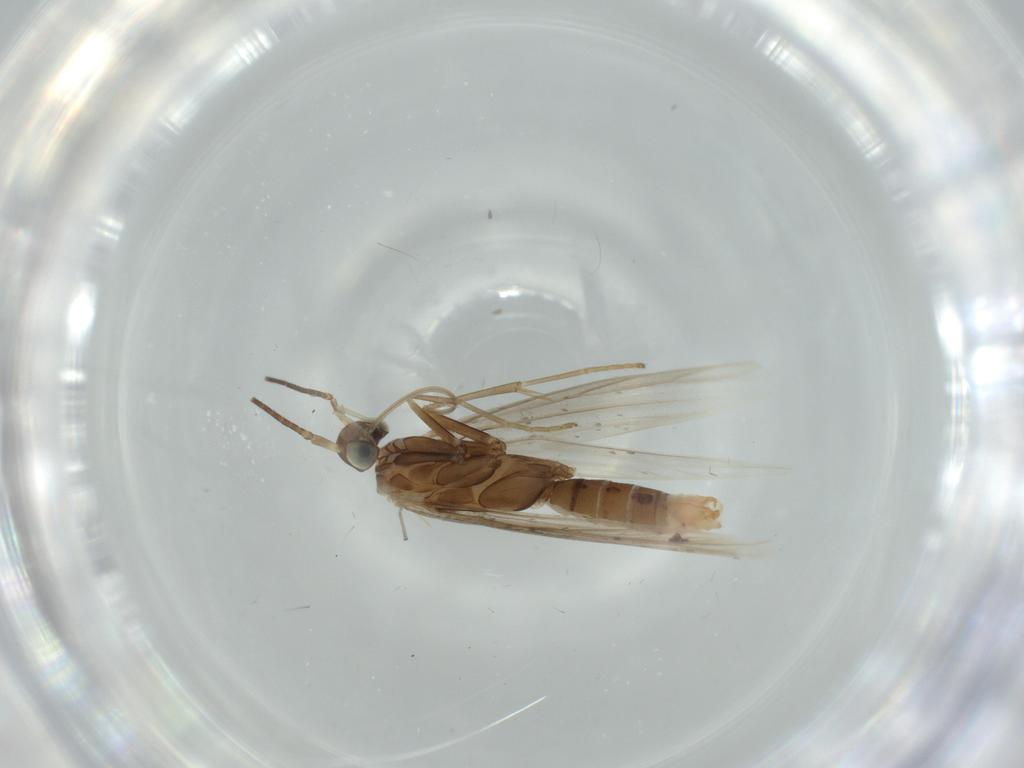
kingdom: Animalia
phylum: Arthropoda
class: Insecta
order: Lepidoptera
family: Coleophoridae
